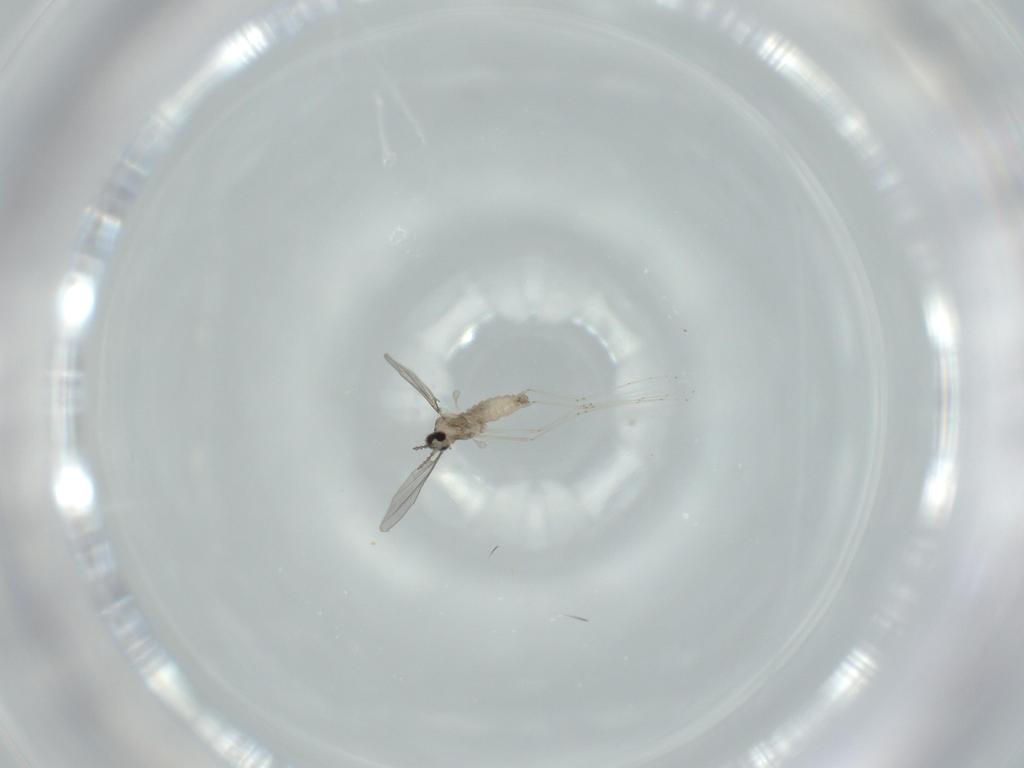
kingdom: Animalia
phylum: Arthropoda
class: Insecta
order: Diptera
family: Cecidomyiidae
